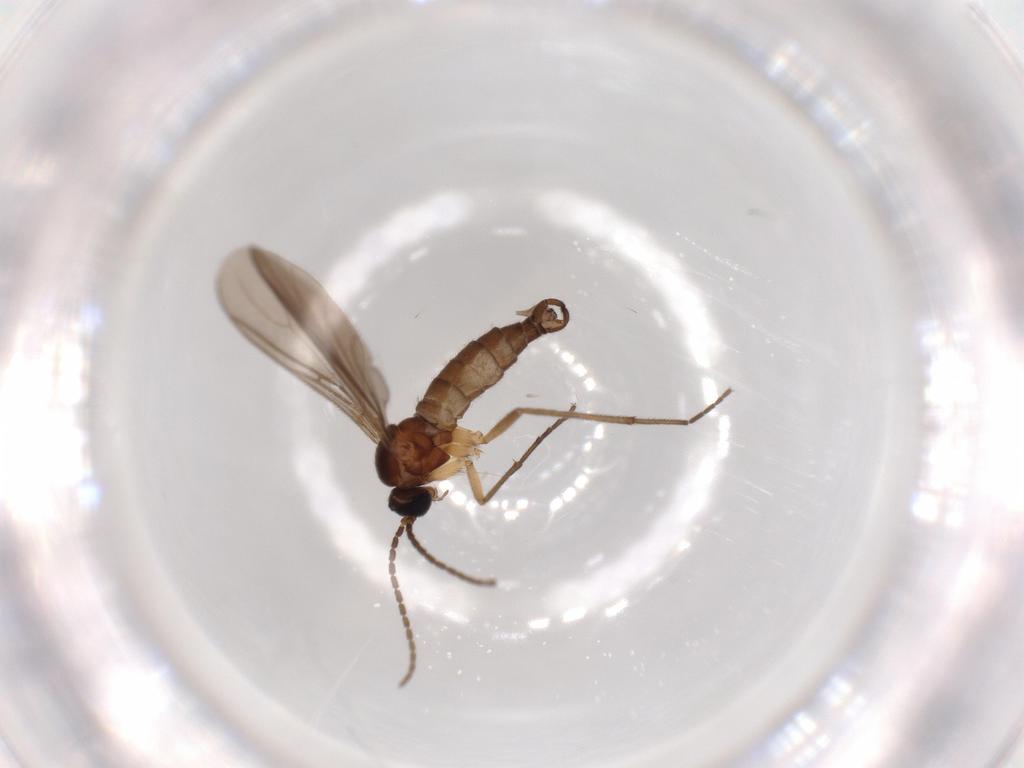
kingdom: Animalia
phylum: Arthropoda
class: Insecta
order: Diptera
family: Sciaridae
